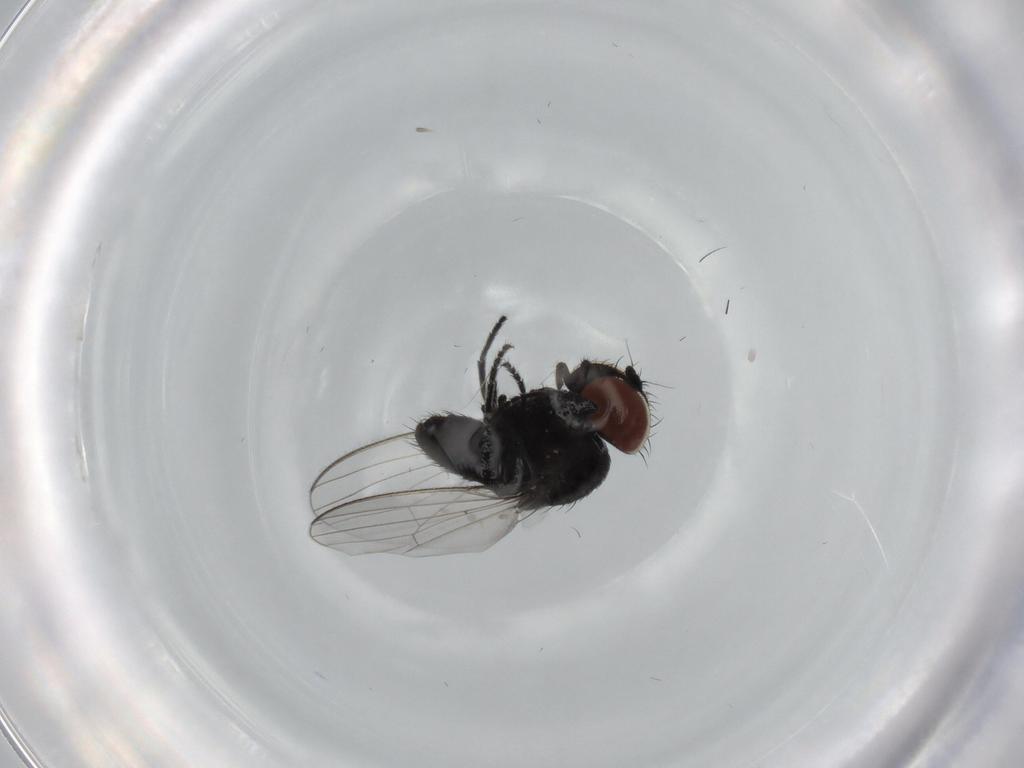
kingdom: Animalia
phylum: Arthropoda
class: Insecta
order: Diptera
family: Milichiidae
